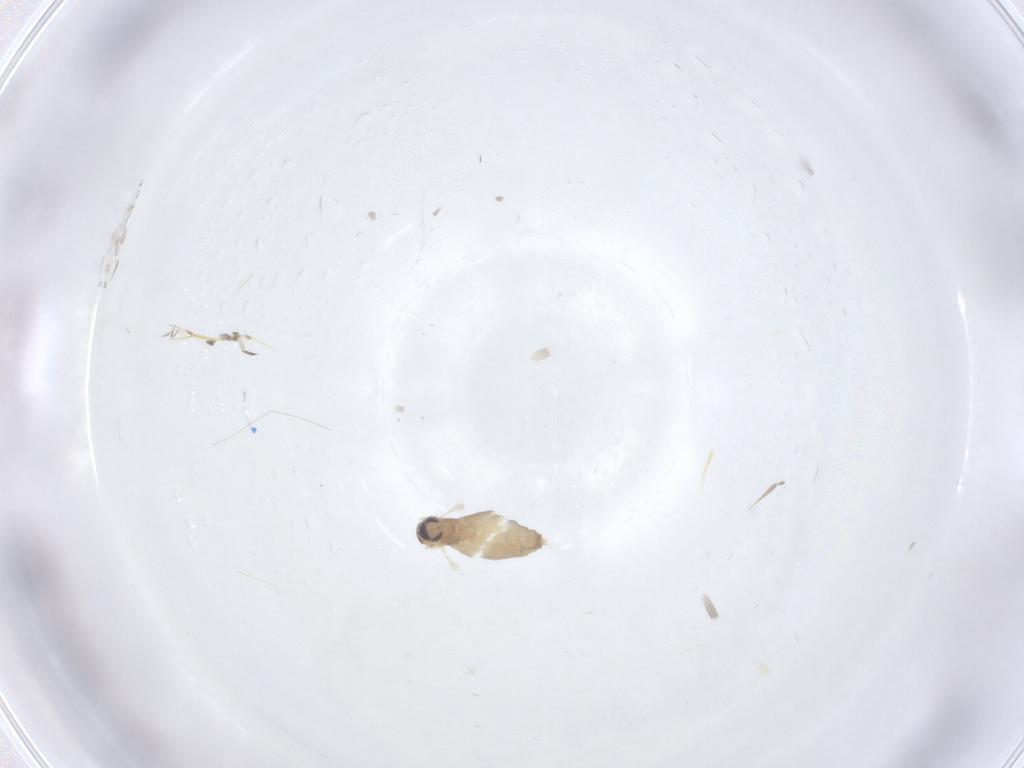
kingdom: Animalia
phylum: Arthropoda
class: Insecta
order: Diptera
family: Cecidomyiidae
